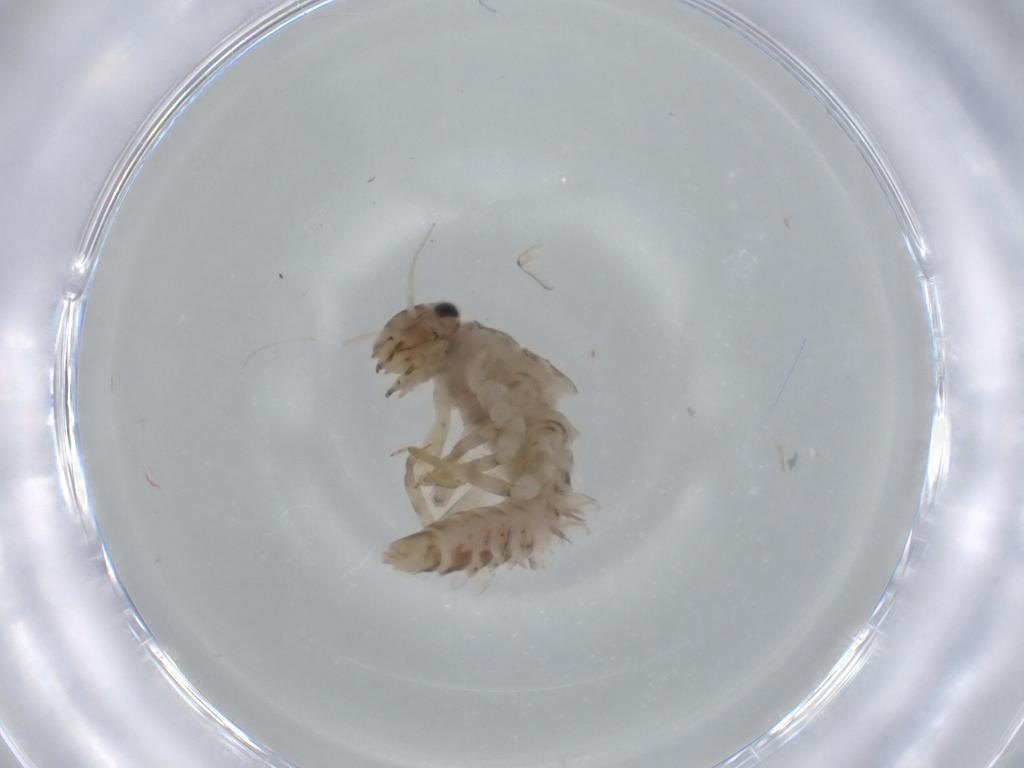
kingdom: Animalia
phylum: Arthropoda
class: Insecta
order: Ephemeroptera
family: Ephemerellidae
